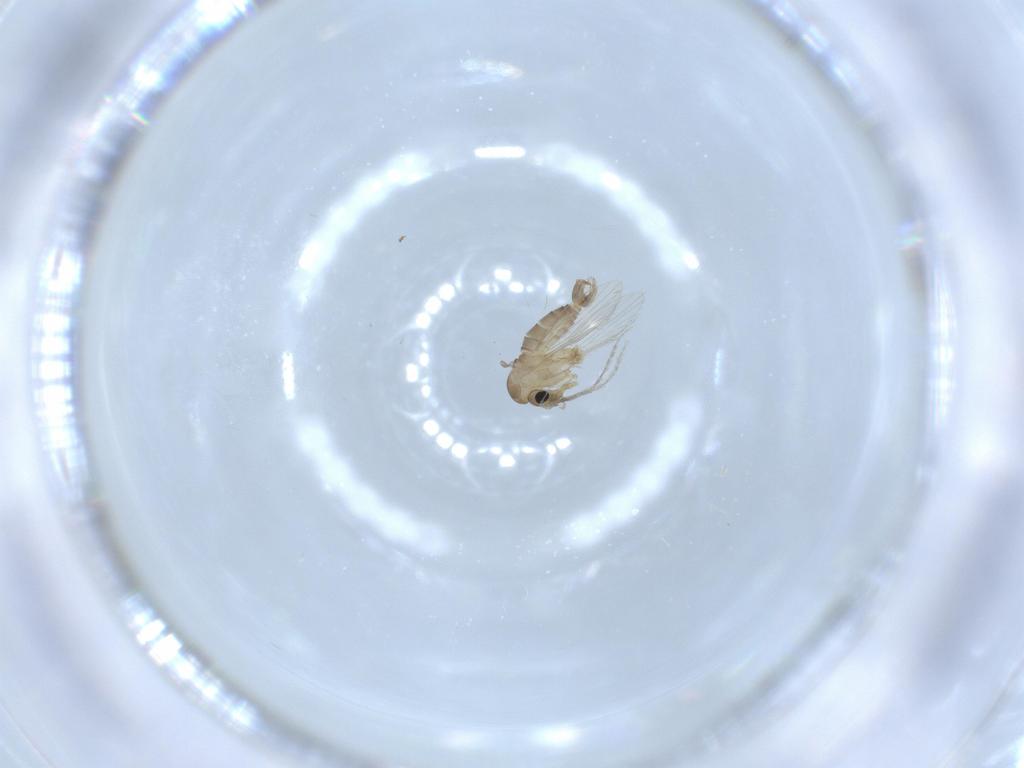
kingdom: Animalia
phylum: Arthropoda
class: Insecta
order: Diptera
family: Psychodidae
